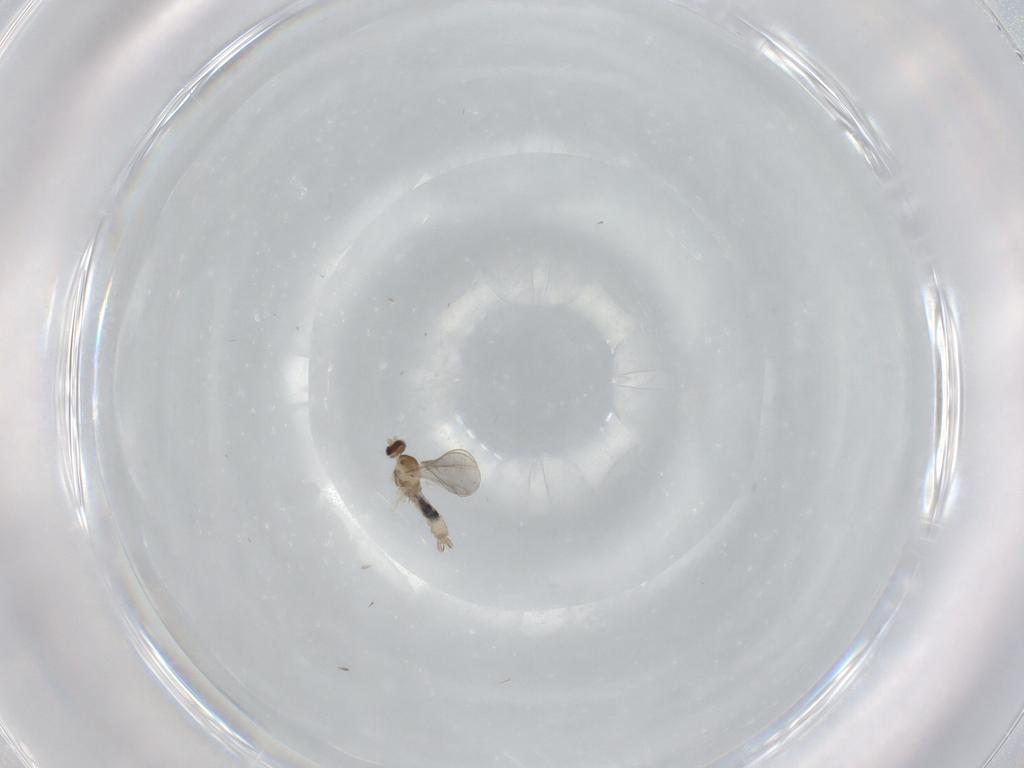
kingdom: Animalia
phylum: Arthropoda
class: Insecta
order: Diptera
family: Cecidomyiidae
